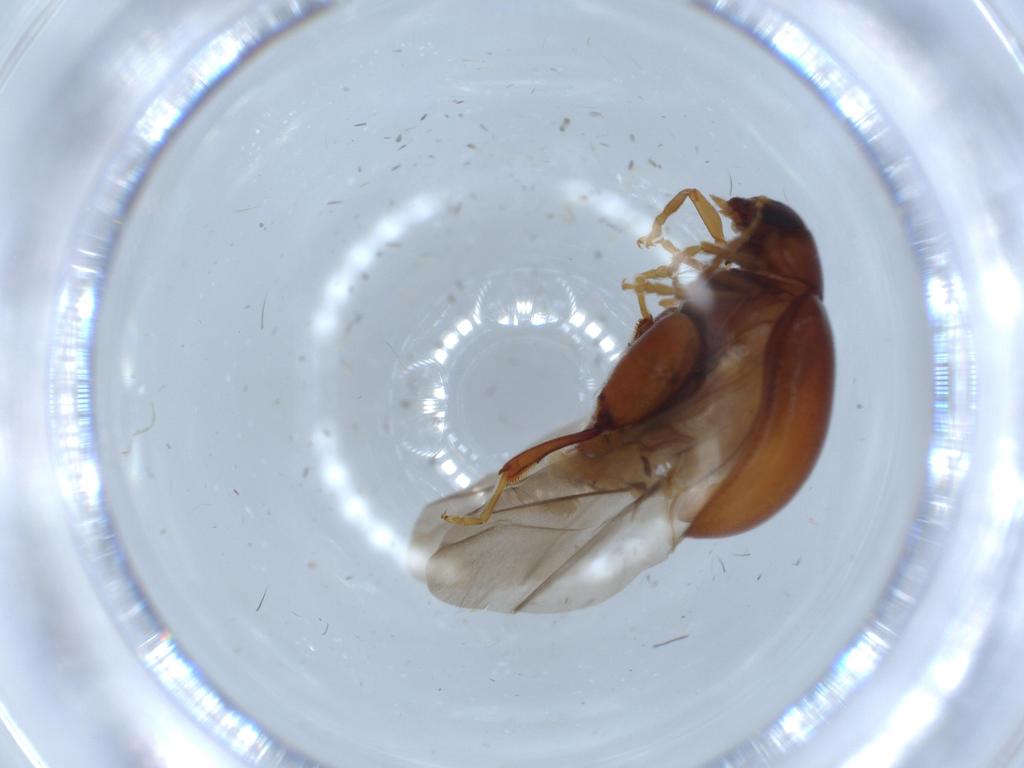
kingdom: Animalia
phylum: Arthropoda
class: Insecta
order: Coleoptera
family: Chrysomelidae
